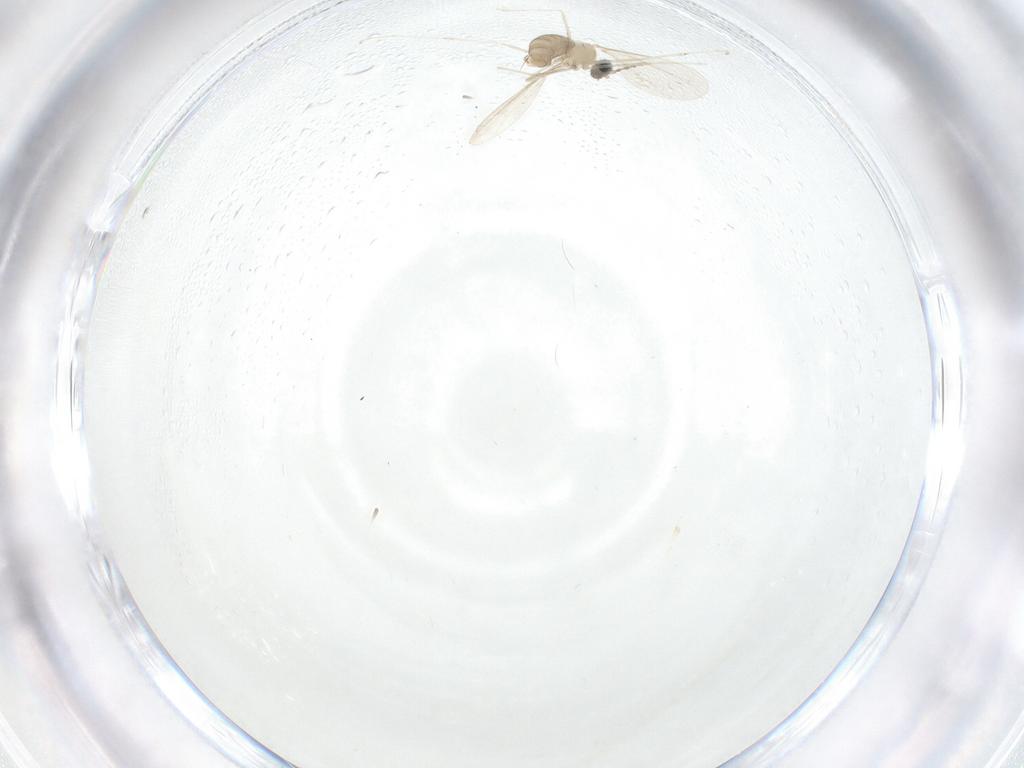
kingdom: Animalia
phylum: Arthropoda
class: Insecta
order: Diptera
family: Cecidomyiidae
